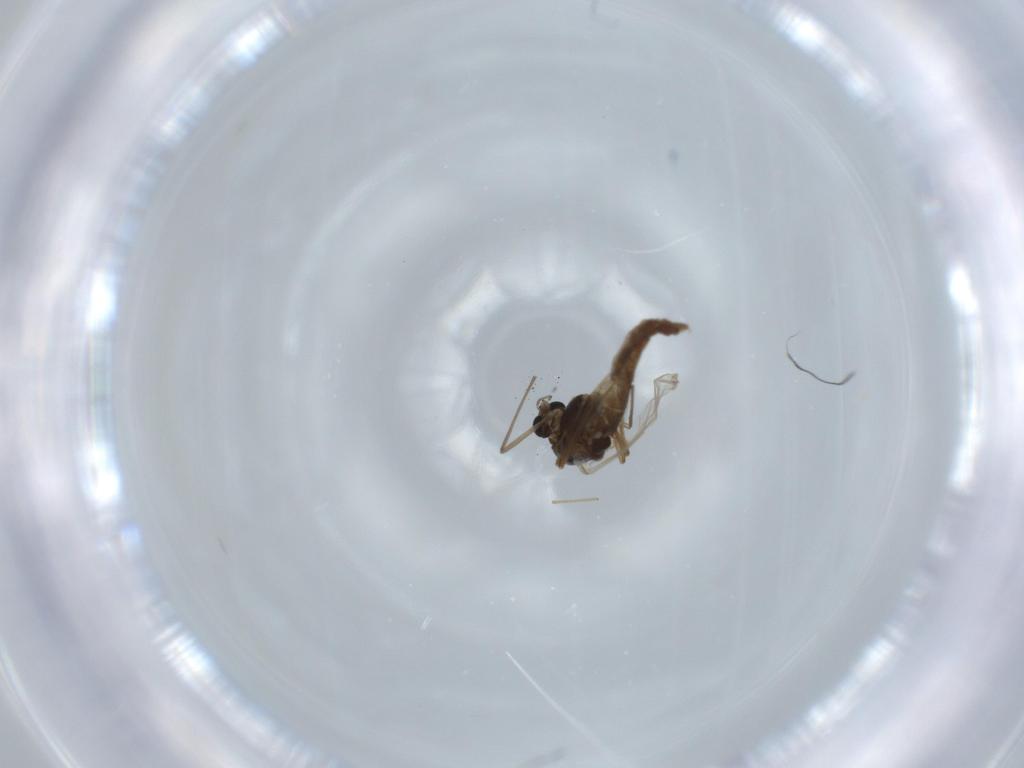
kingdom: Animalia
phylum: Arthropoda
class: Insecta
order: Diptera
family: Chironomidae
